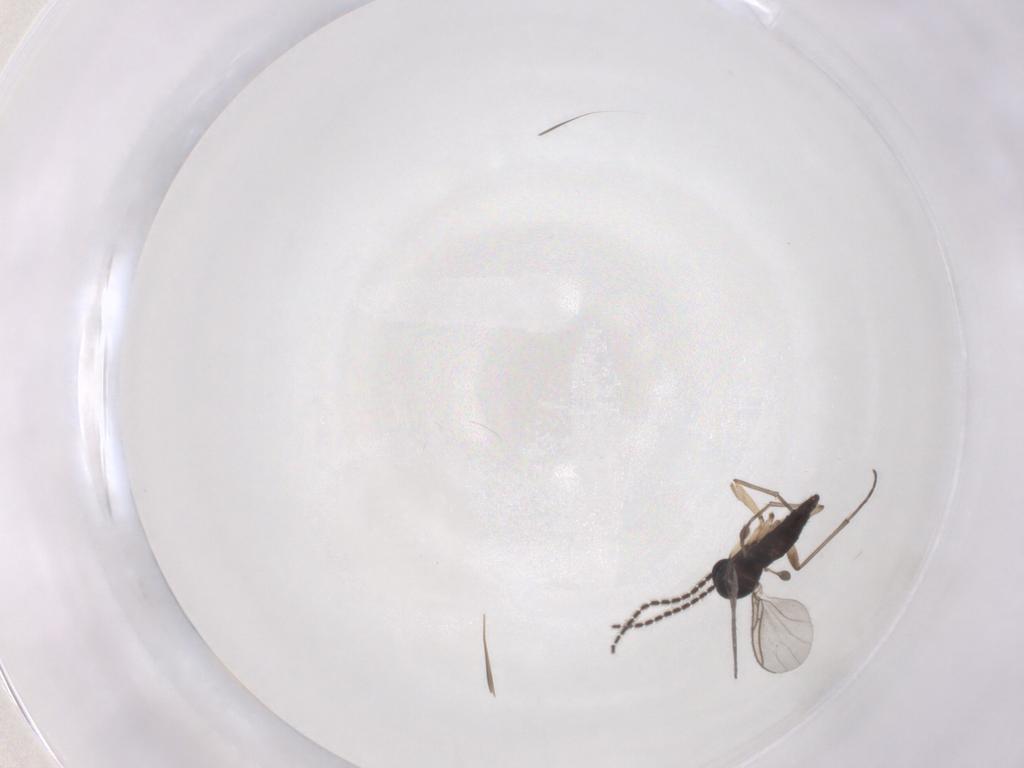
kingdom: Animalia
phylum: Arthropoda
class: Insecta
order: Diptera
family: Sciaridae
